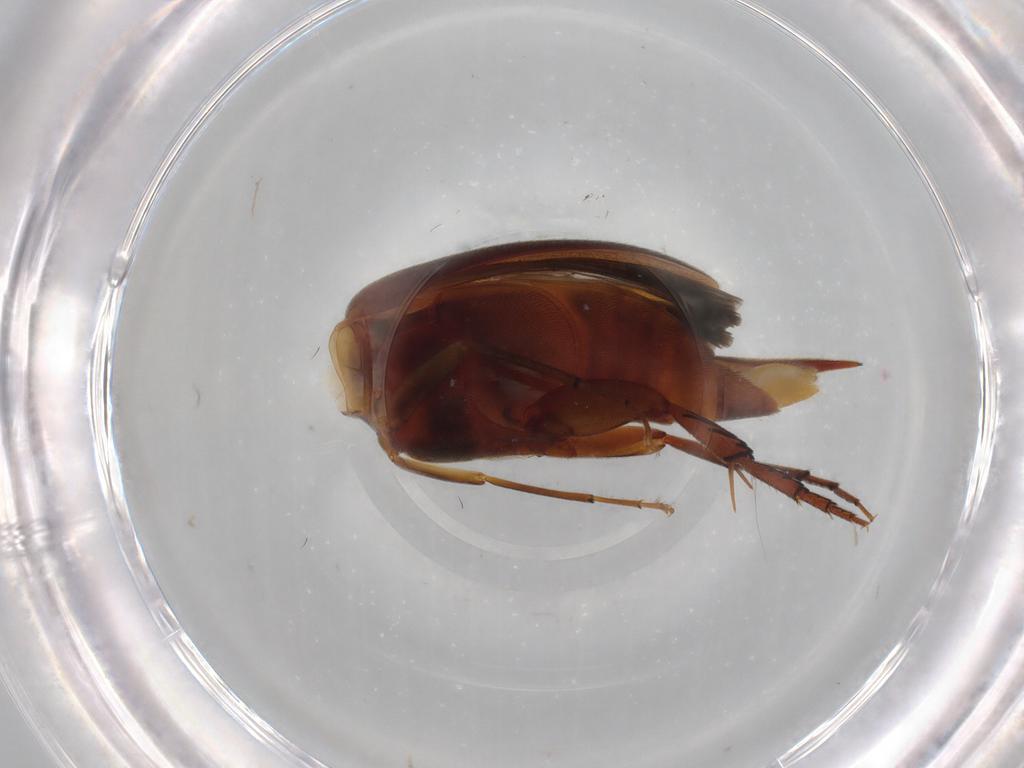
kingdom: Animalia
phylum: Arthropoda
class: Insecta
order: Coleoptera
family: Mordellidae
